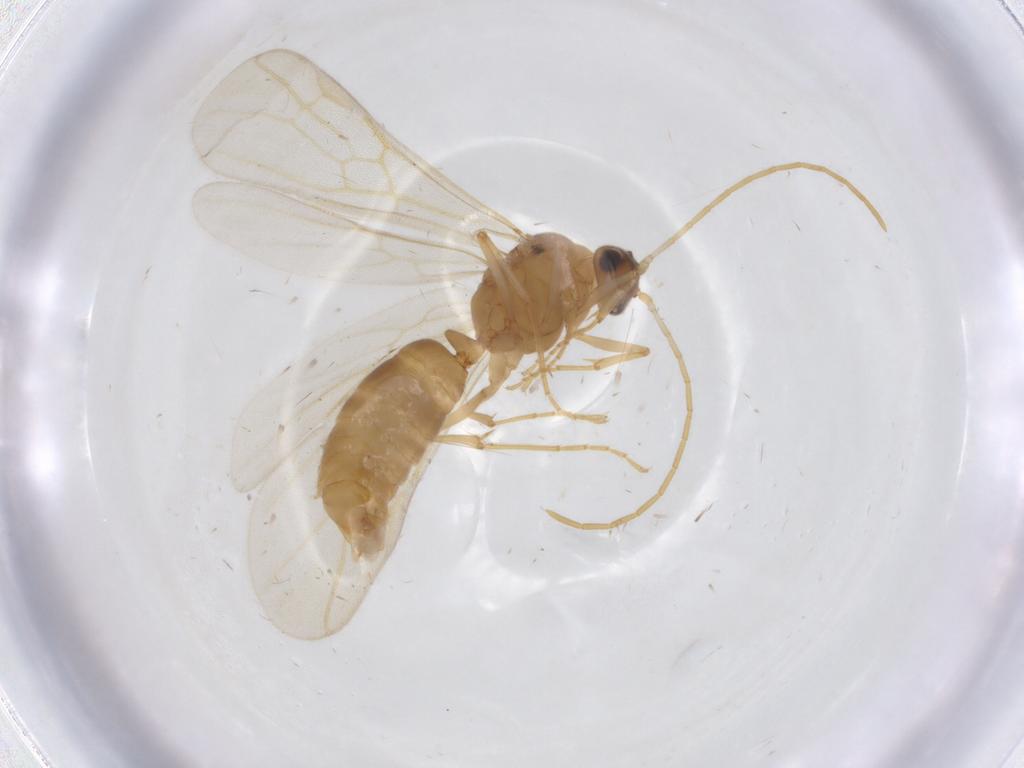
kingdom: Animalia
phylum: Arthropoda
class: Insecta
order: Hymenoptera
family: Formicidae
